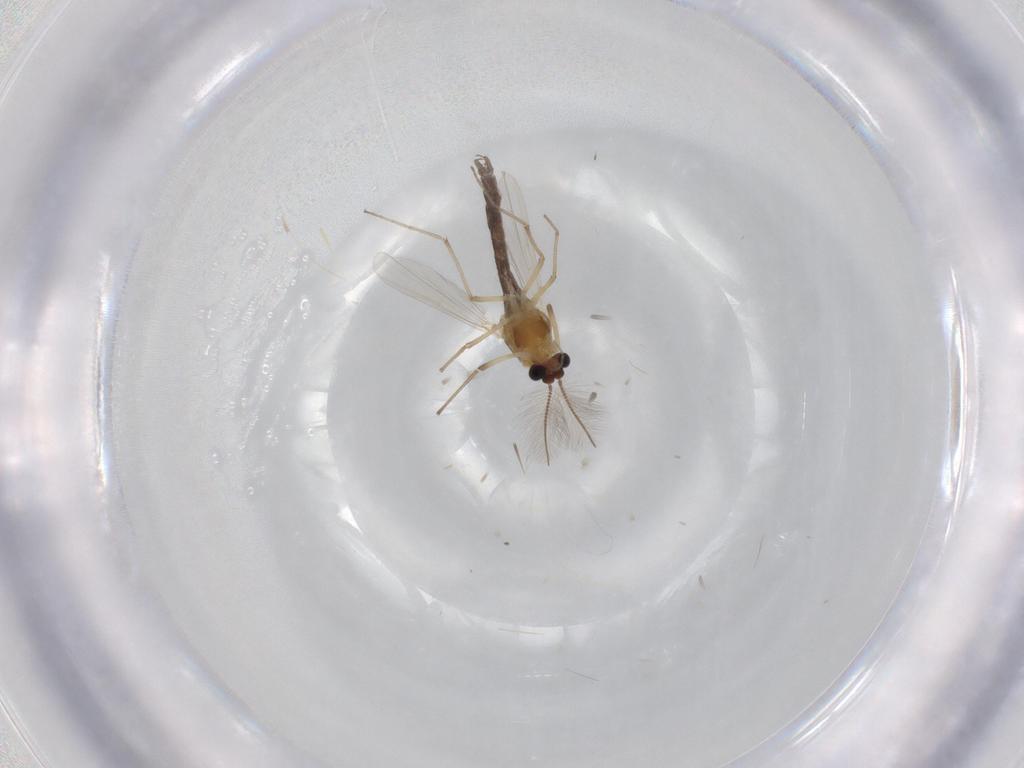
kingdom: Animalia
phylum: Arthropoda
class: Insecta
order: Diptera
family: Chironomidae
